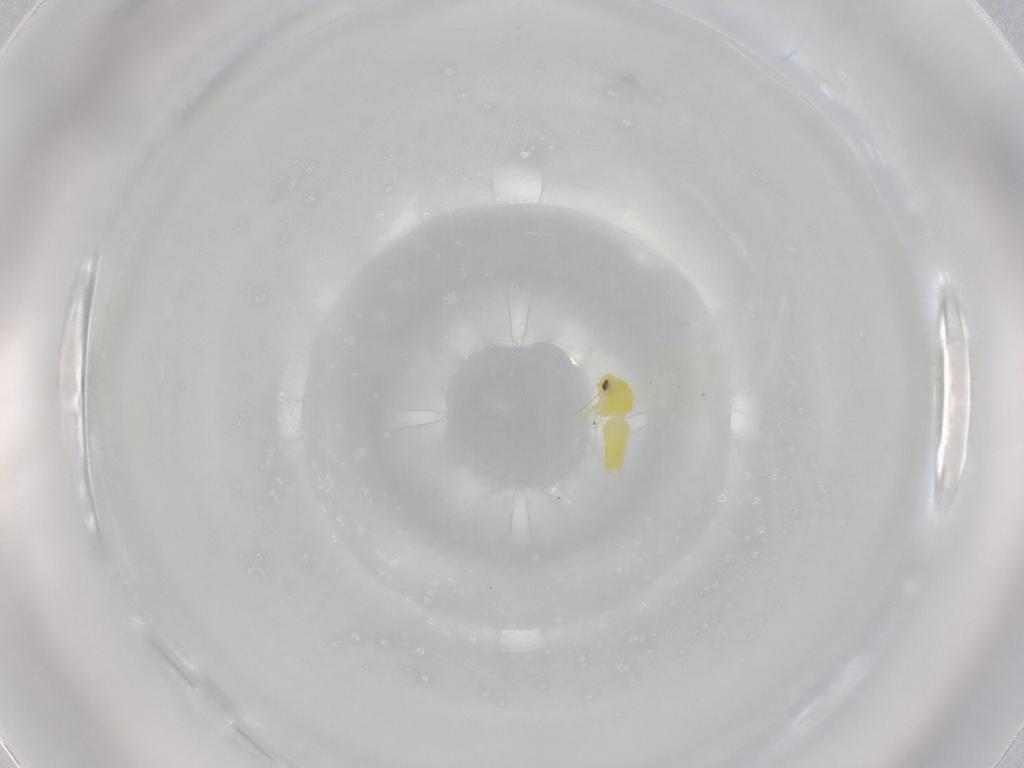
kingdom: Animalia
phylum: Arthropoda
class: Insecta
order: Hemiptera
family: Aleyrodidae
